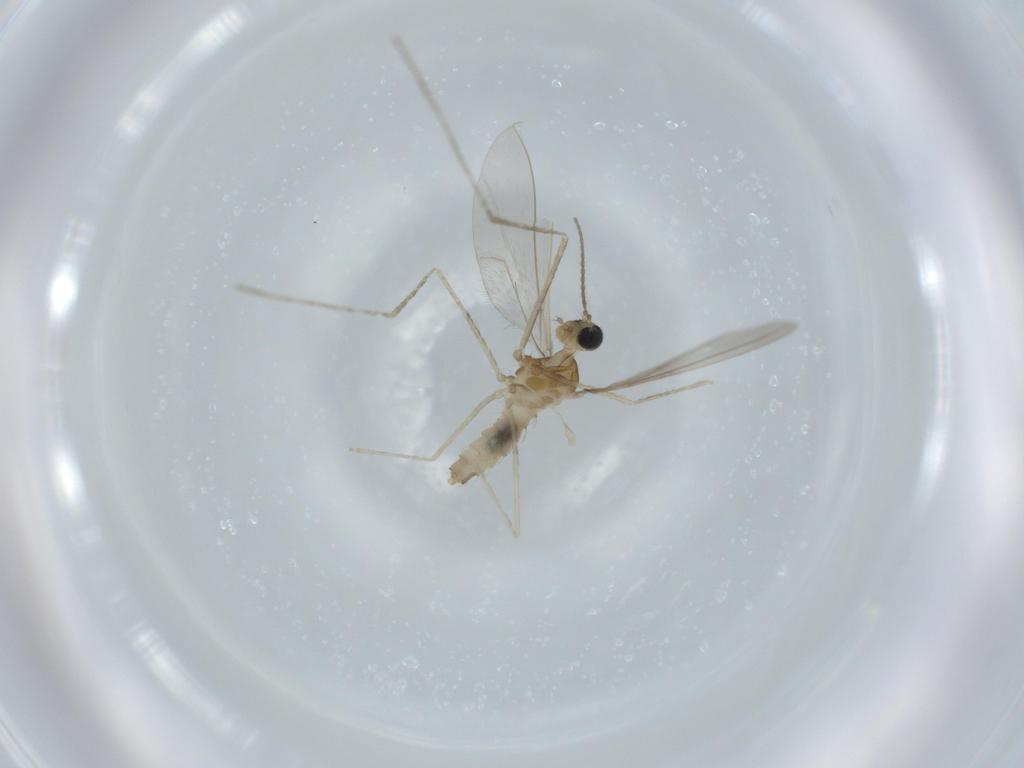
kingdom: Animalia
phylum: Arthropoda
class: Insecta
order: Diptera
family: Cecidomyiidae
